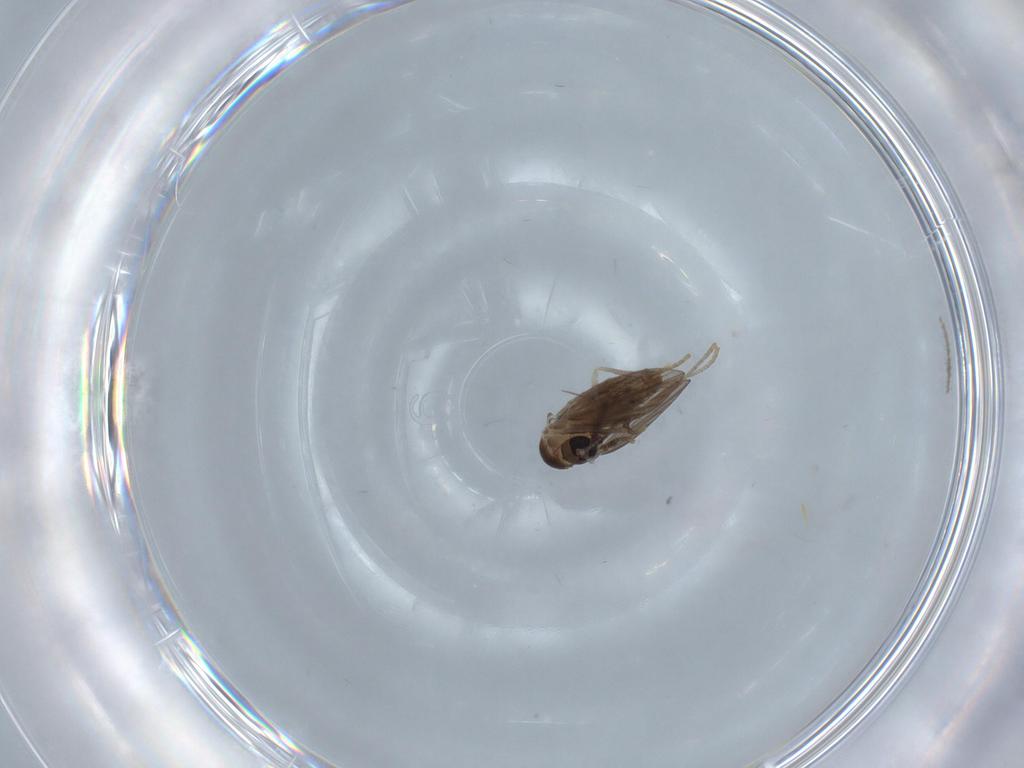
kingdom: Animalia
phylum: Arthropoda
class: Insecta
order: Diptera
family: Psychodidae
